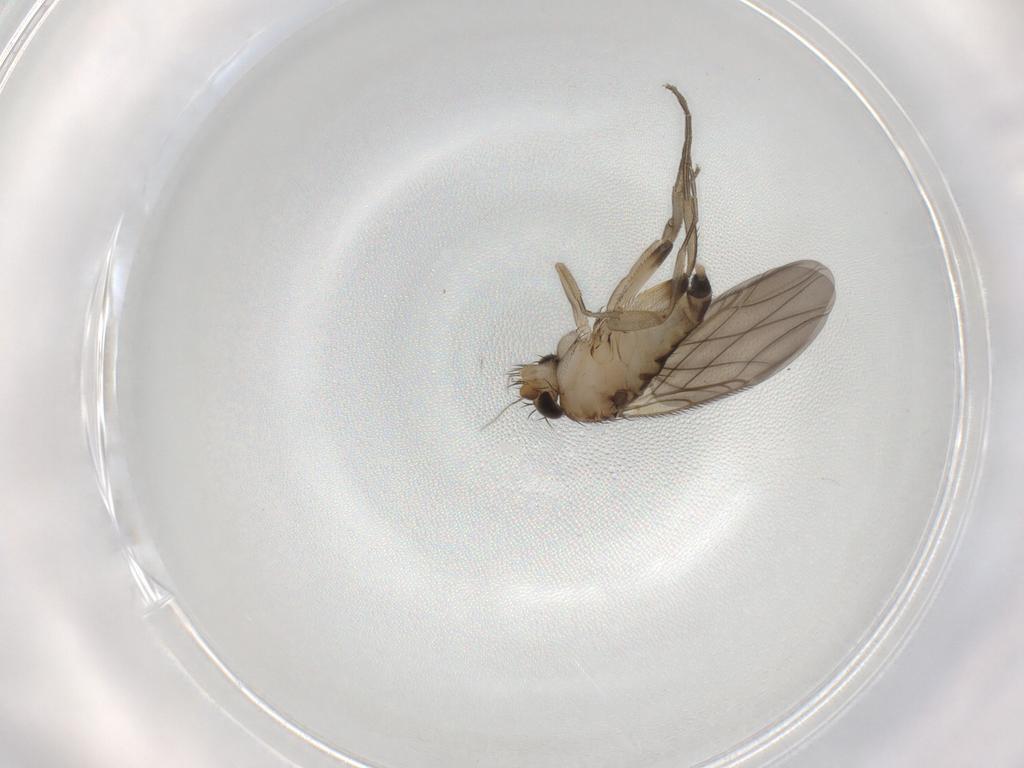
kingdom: Animalia
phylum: Arthropoda
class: Insecta
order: Diptera
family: Phoridae
